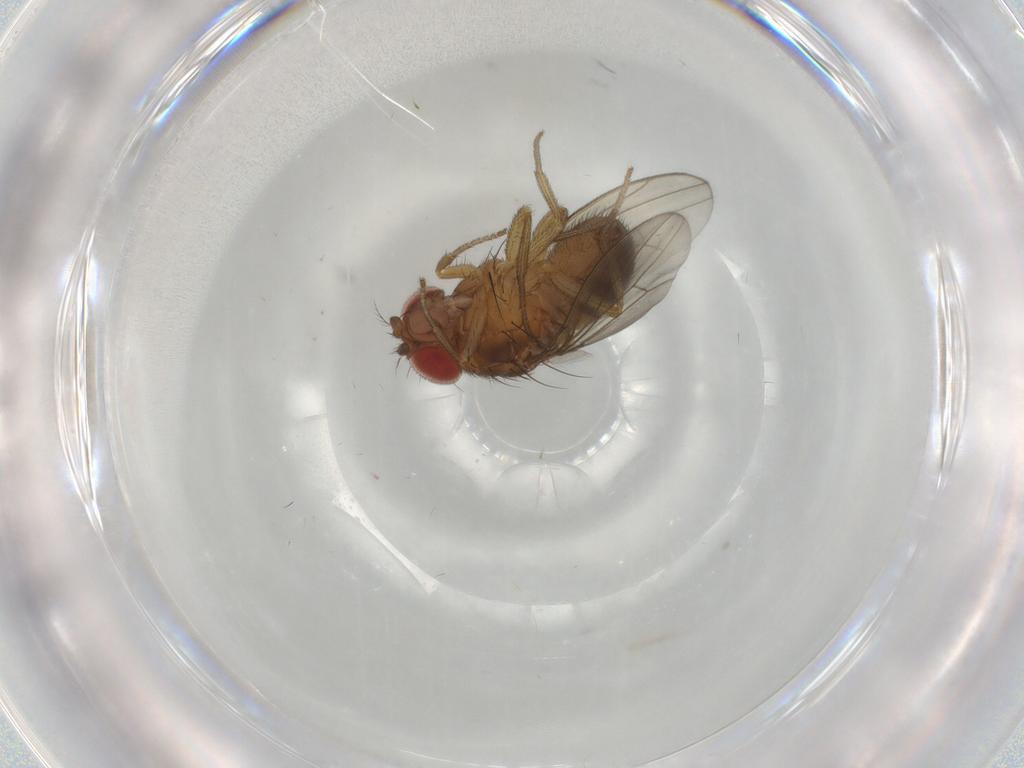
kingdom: Animalia
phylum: Arthropoda
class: Insecta
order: Diptera
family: Drosophilidae
